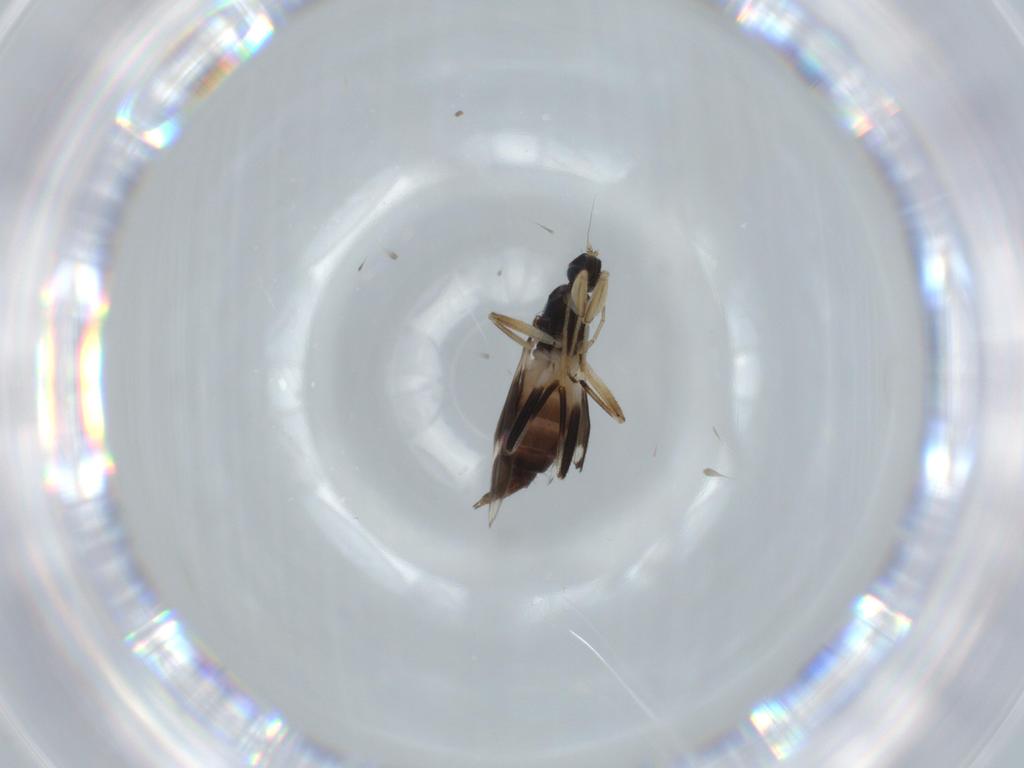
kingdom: Animalia
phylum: Arthropoda
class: Insecta
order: Diptera
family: Hybotidae
